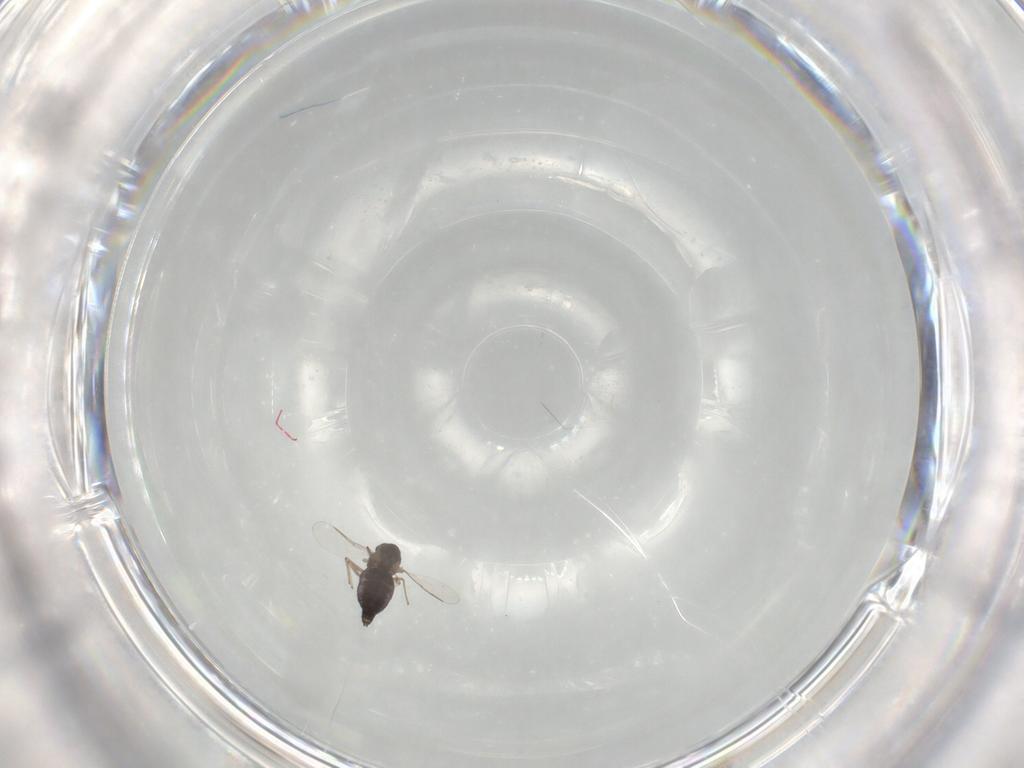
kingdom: Animalia
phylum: Arthropoda
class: Insecta
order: Diptera
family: Chironomidae
